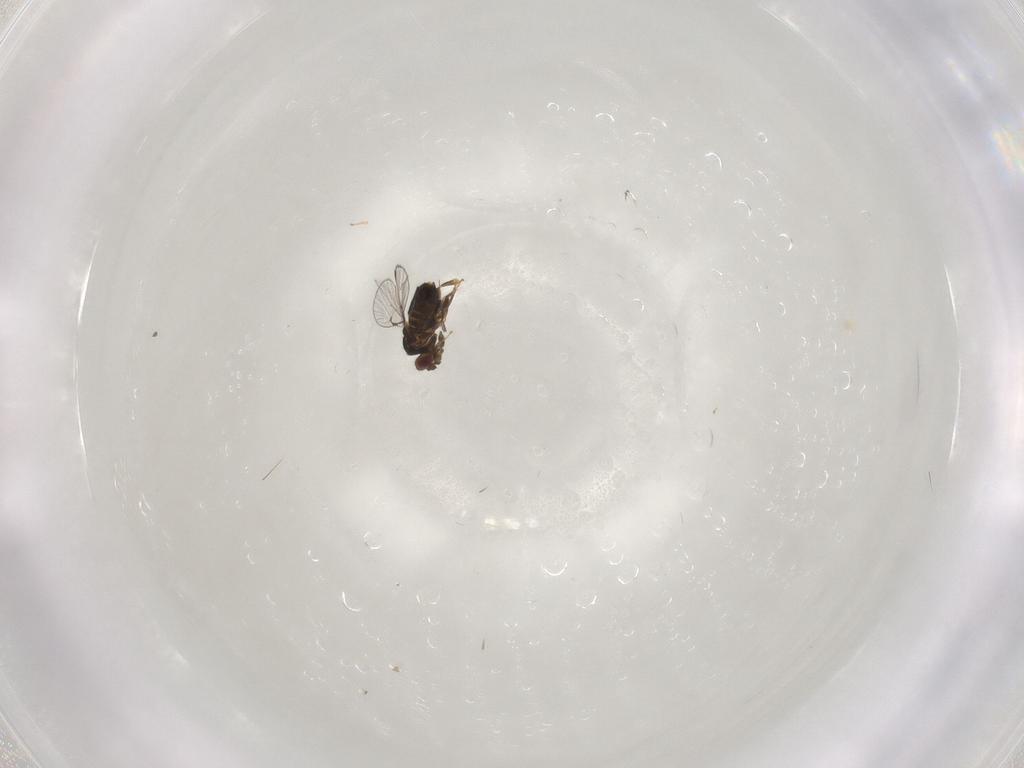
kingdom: Animalia
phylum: Arthropoda
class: Insecta
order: Hymenoptera
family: Trichogrammatidae
